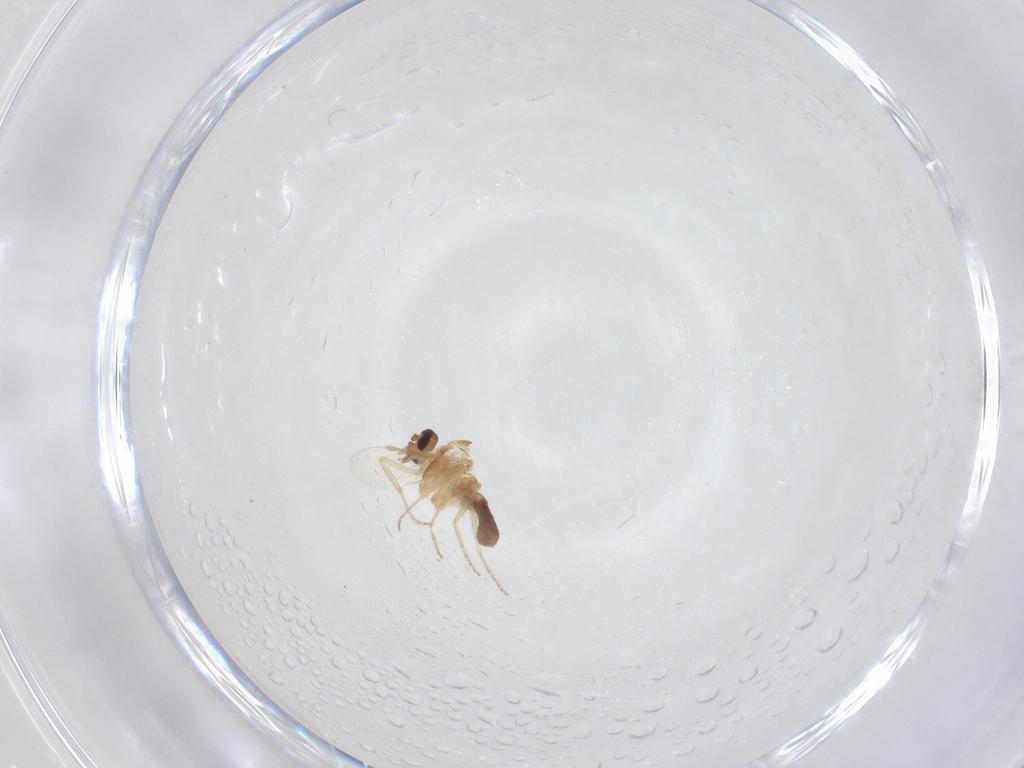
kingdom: Animalia
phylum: Arthropoda
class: Insecta
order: Diptera
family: Ceratopogonidae
